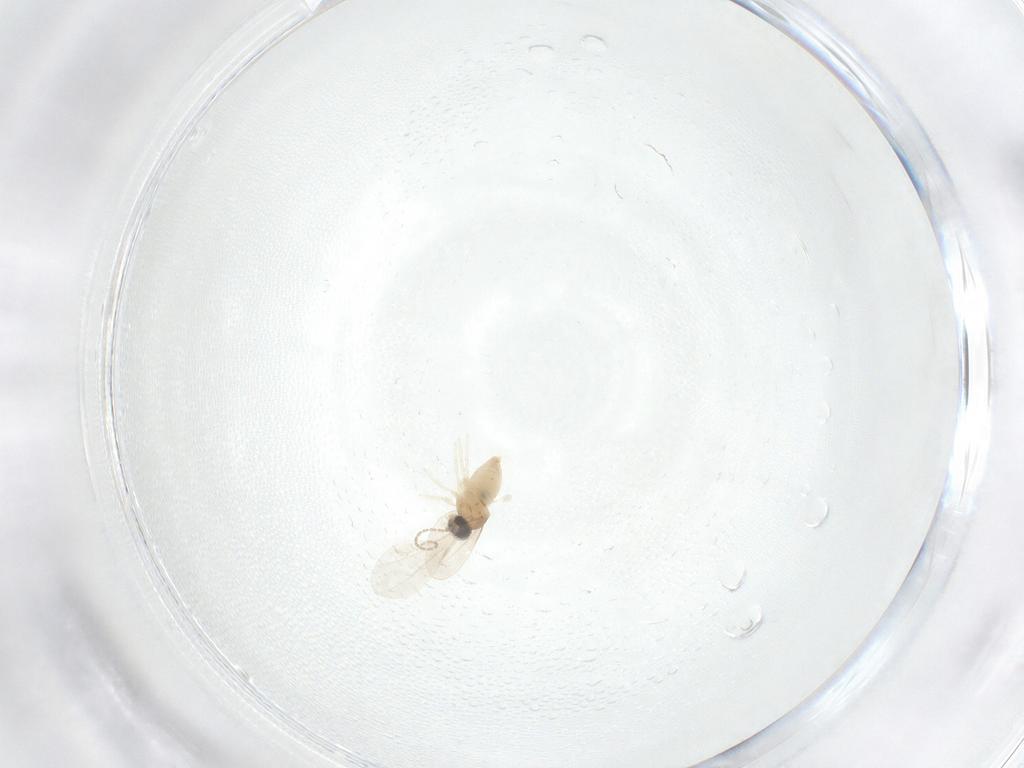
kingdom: Animalia
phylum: Arthropoda
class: Insecta
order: Diptera
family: Cecidomyiidae
